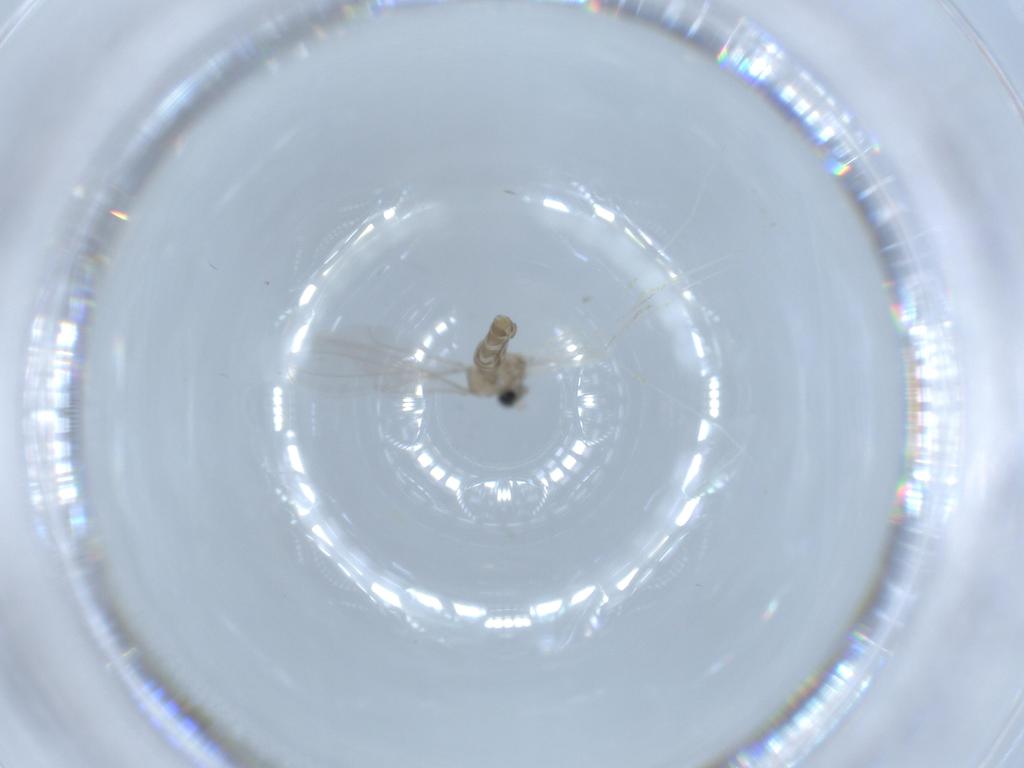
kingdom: Animalia
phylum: Arthropoda
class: Insecta
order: Diptera
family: Cecidomyiidae
